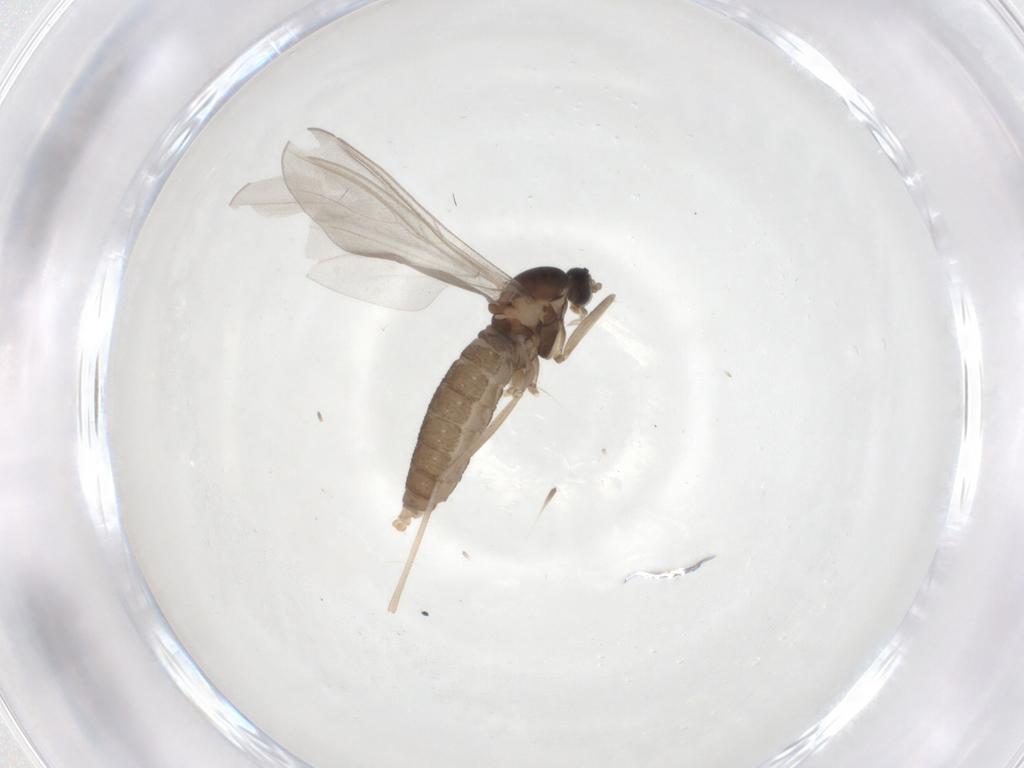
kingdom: Animalia
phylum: Arthropoda
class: Insecta
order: Diptera
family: Cecidomyiidae
